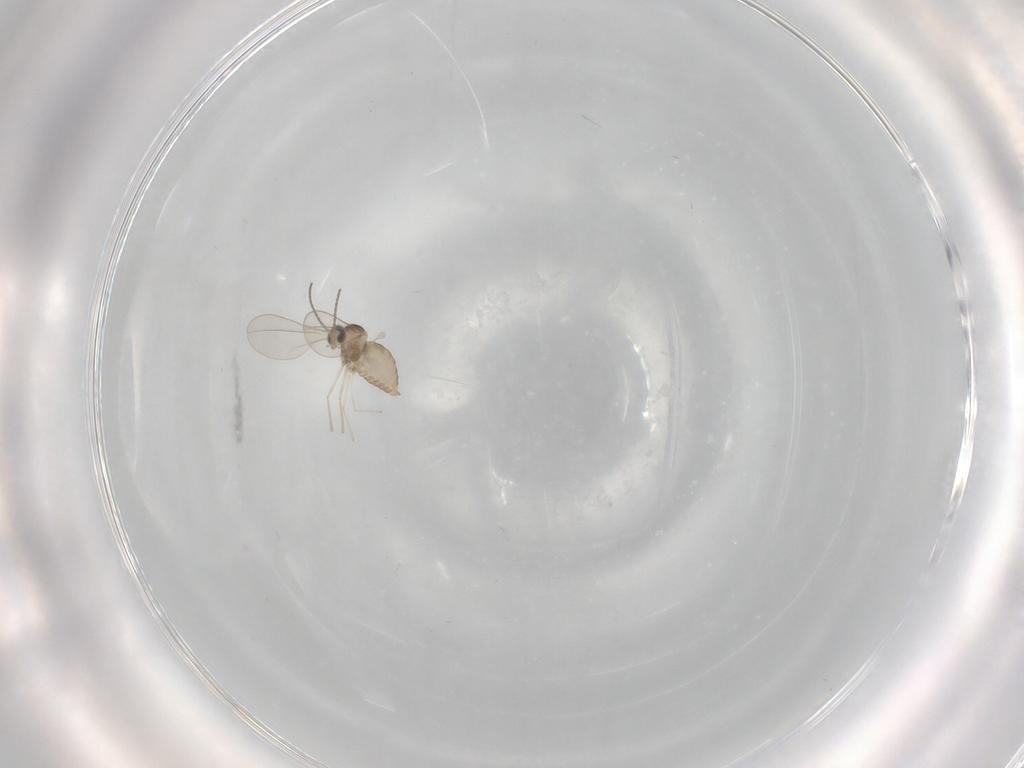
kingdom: Animalia
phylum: Arthropoda
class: Insecta
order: Diptera
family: Cecidomyiidae
